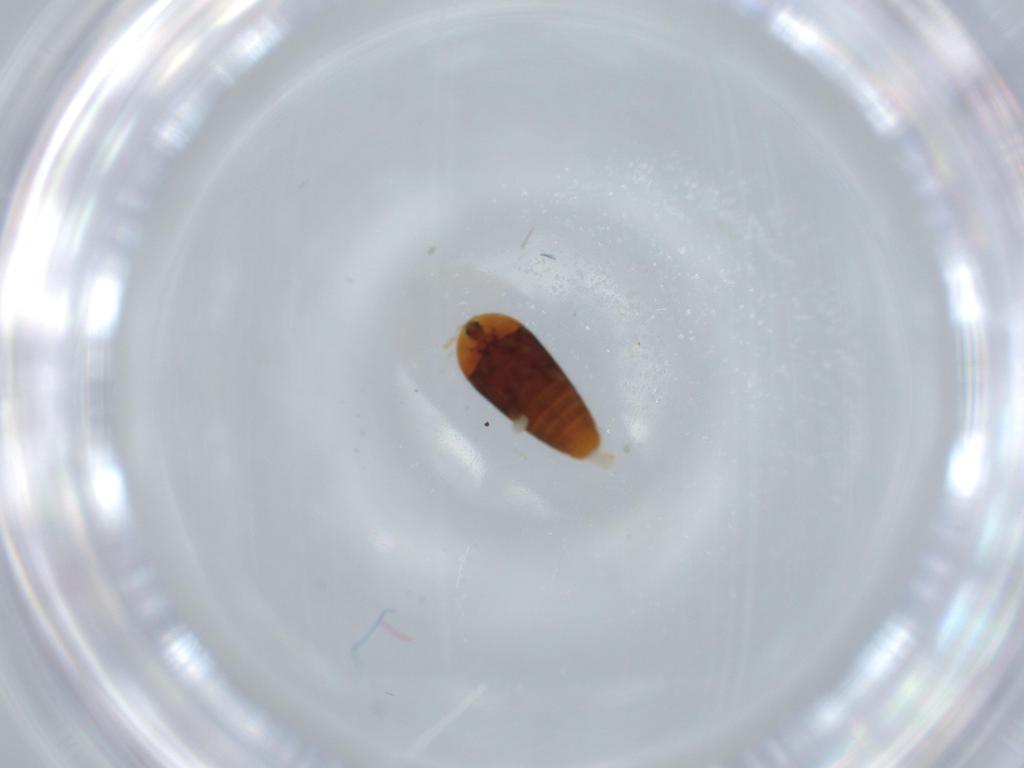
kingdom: Animalia
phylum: Arthropoda
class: Insecta
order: Coleoptera
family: Corylophidae
